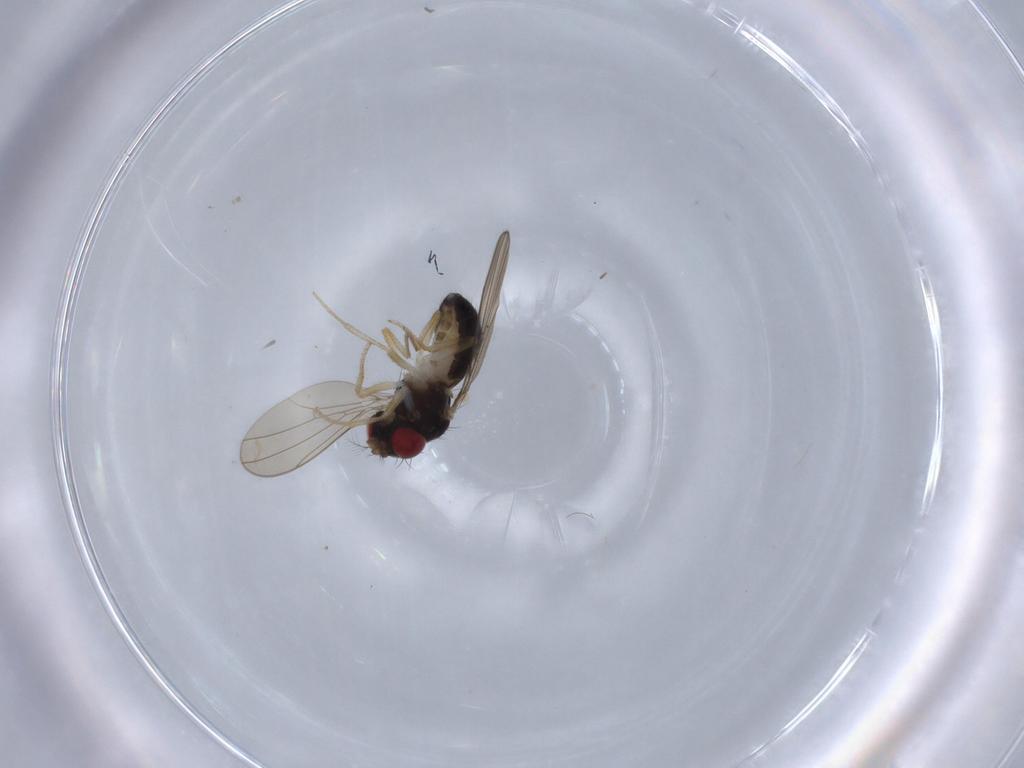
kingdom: Animalia
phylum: Arthropoda
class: Insecta
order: Diptera
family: Drosophilidae
